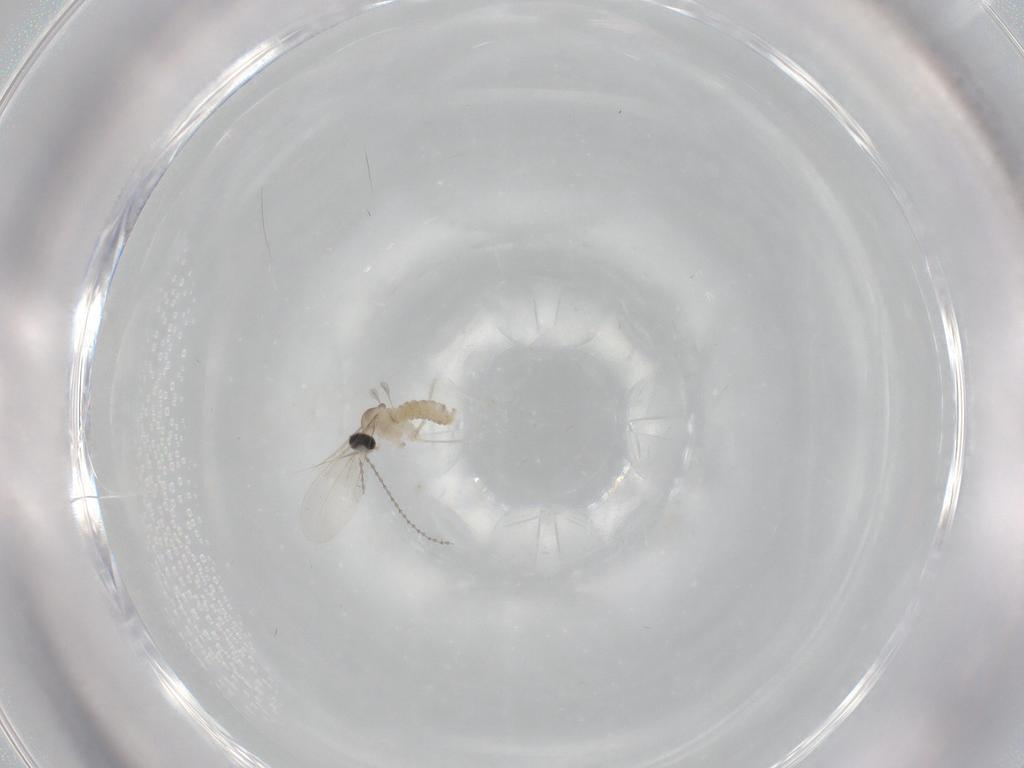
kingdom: Animalia
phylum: Arthropoda
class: Insecta
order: Diptera
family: Cecidomyiidae
